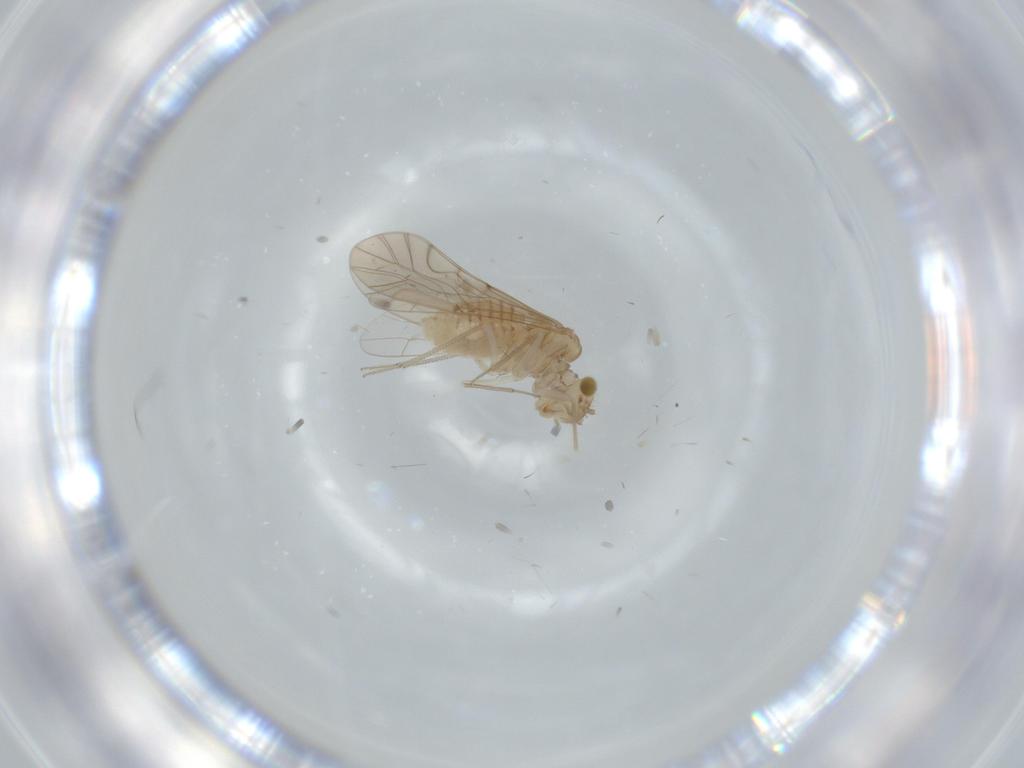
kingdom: Animalia
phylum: Arthropoda
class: Insecta
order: Psocodea
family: Lachesillidae
